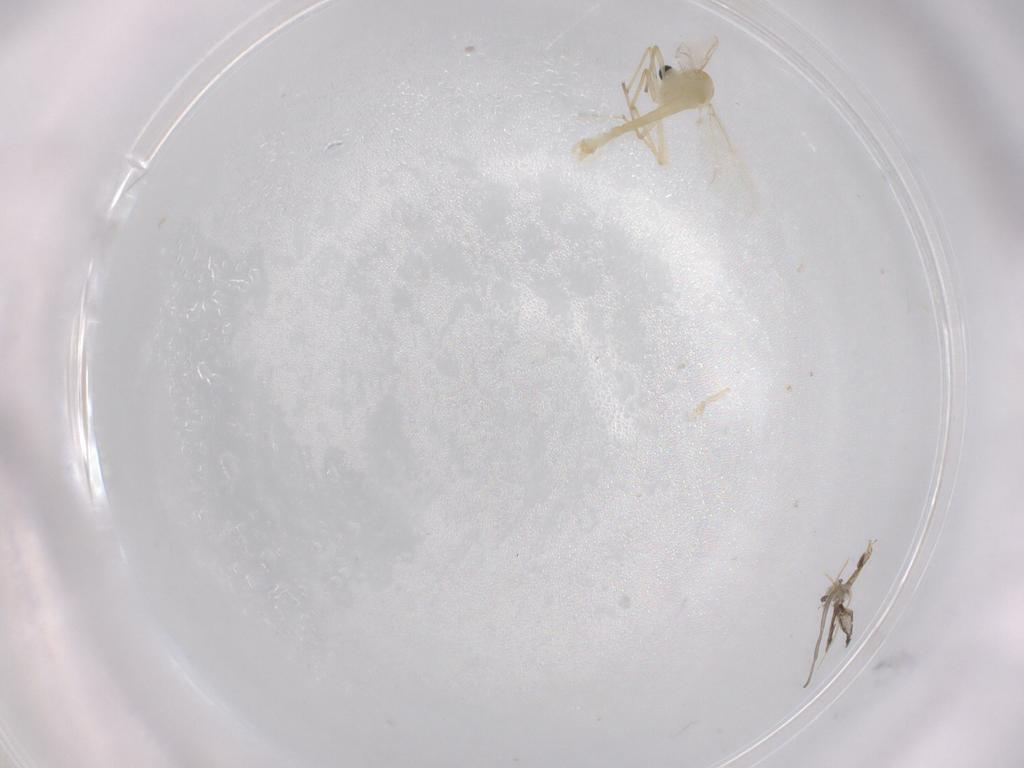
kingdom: Animalia
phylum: Arthropoda
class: Insecta
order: Diptera
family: Chironomidae
